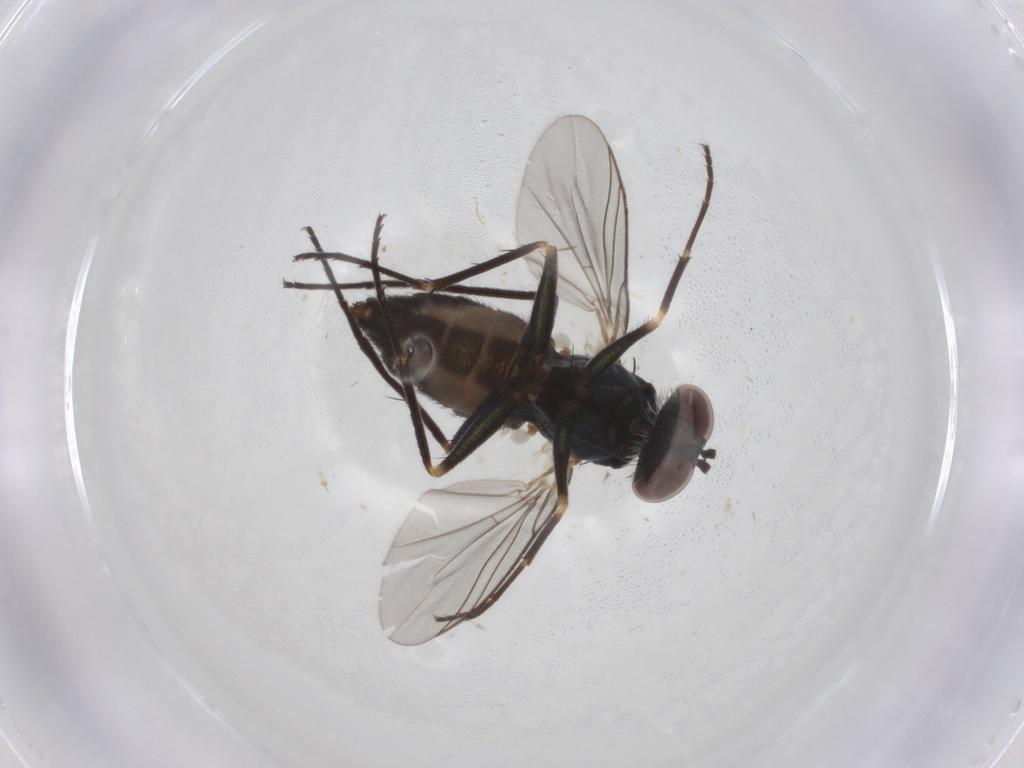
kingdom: Animalia
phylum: Arthropoda
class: Insecta
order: Diptera
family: Dolichopodidae
